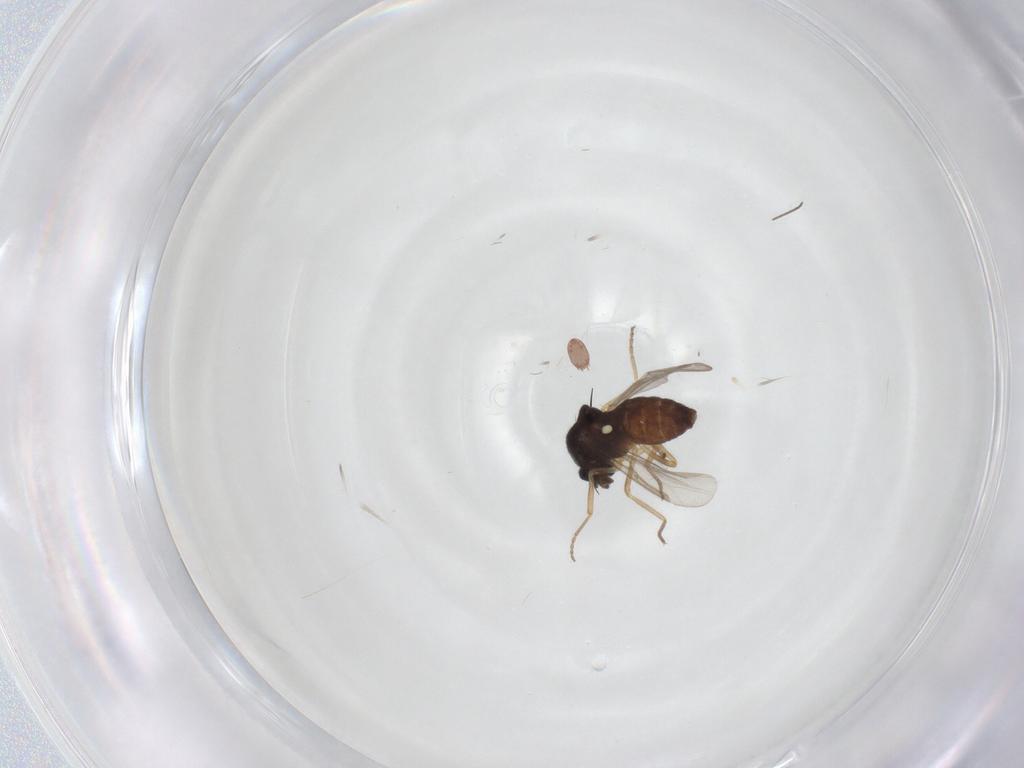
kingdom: Animalia
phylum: Arthropoda
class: Insecta
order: Diptera
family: Ceratopogonidae
